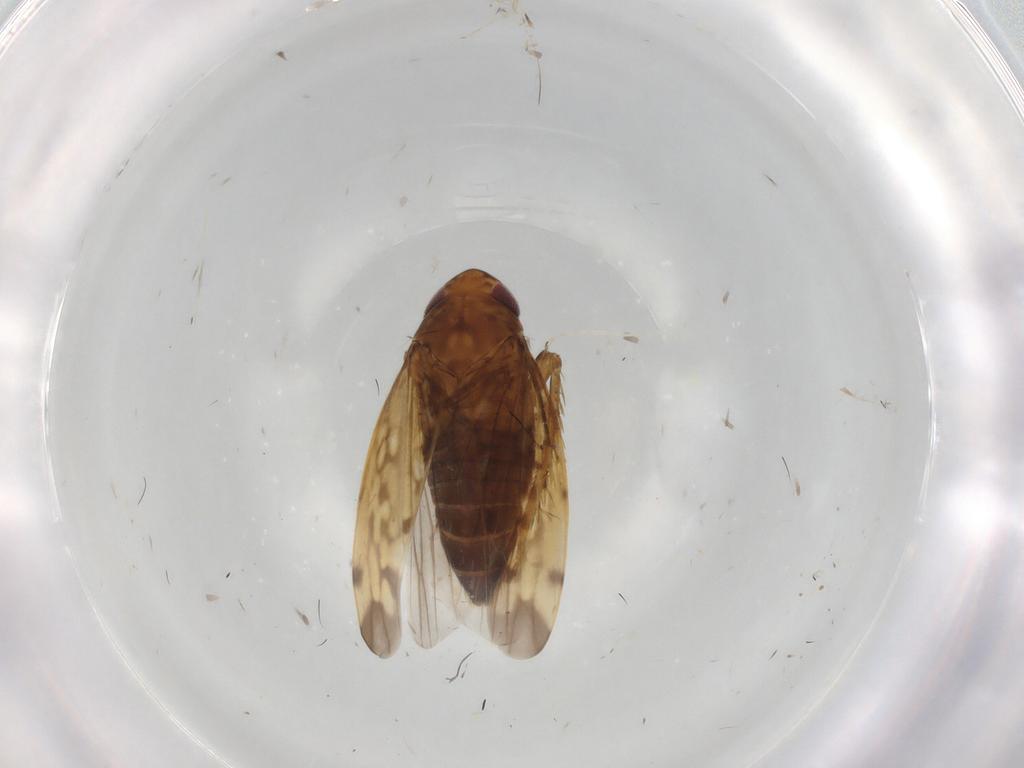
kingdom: Animalia
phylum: Arthropoda
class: Insecta
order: Hemiptera
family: Cicadellidae
